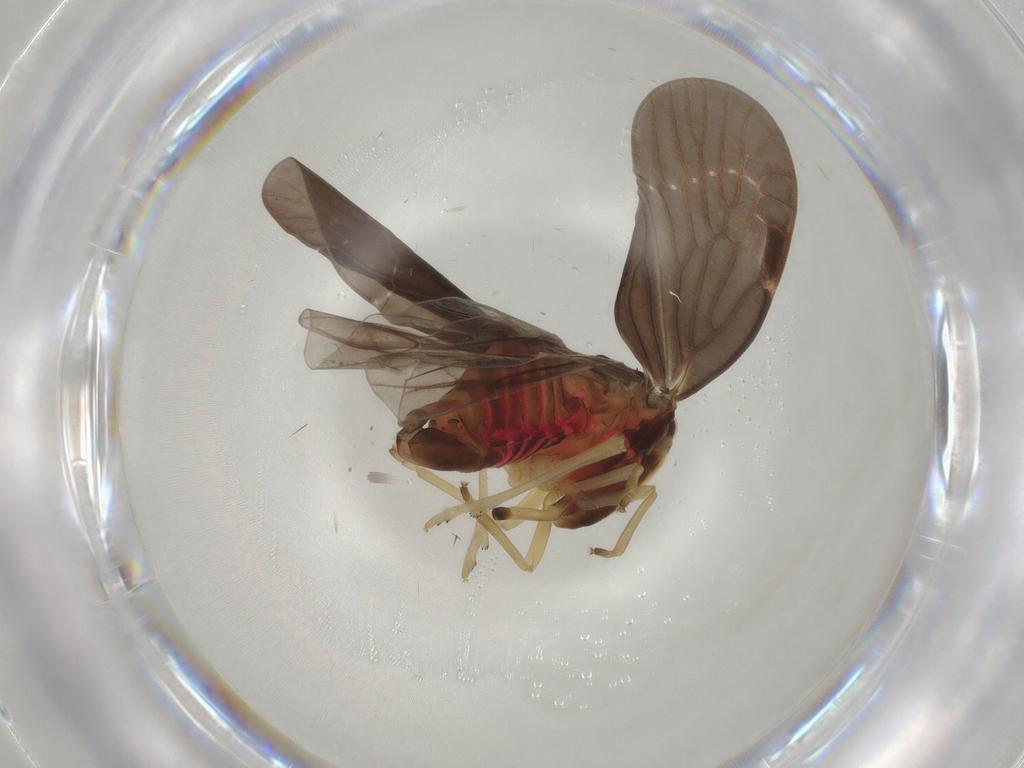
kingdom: Animalia
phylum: Arthropoda
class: Insecta
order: Hemiptera
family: Derbidae
